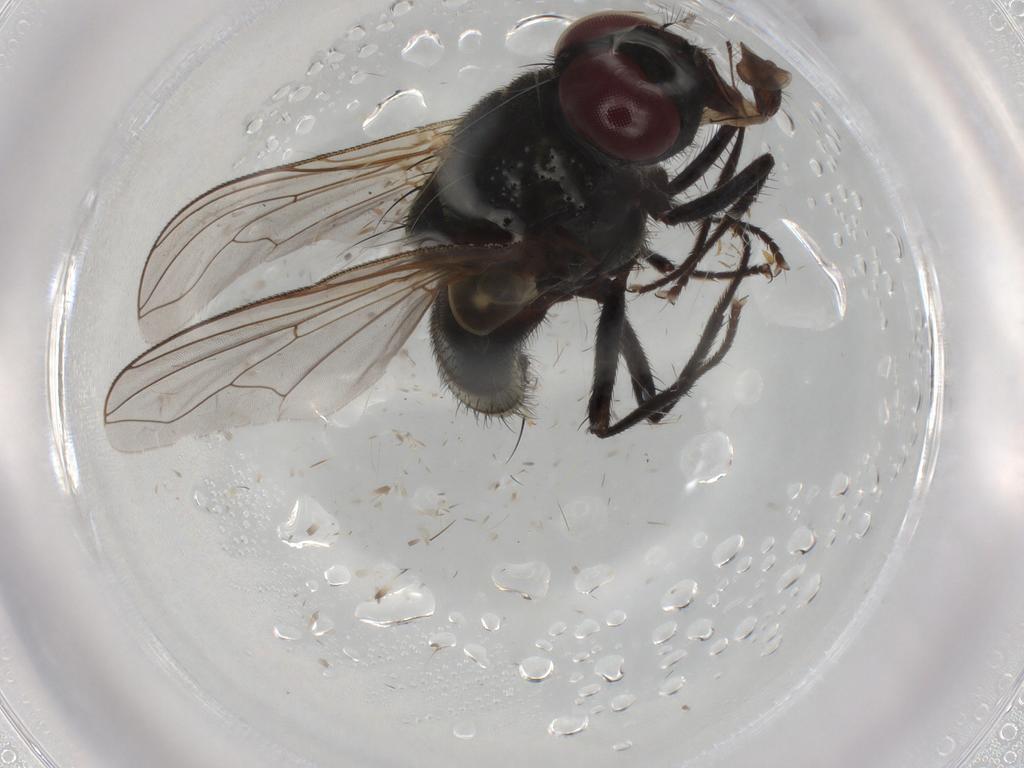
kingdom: Animalia
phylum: Arthropoda
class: Insecta
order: Diptera
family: Muscidae
